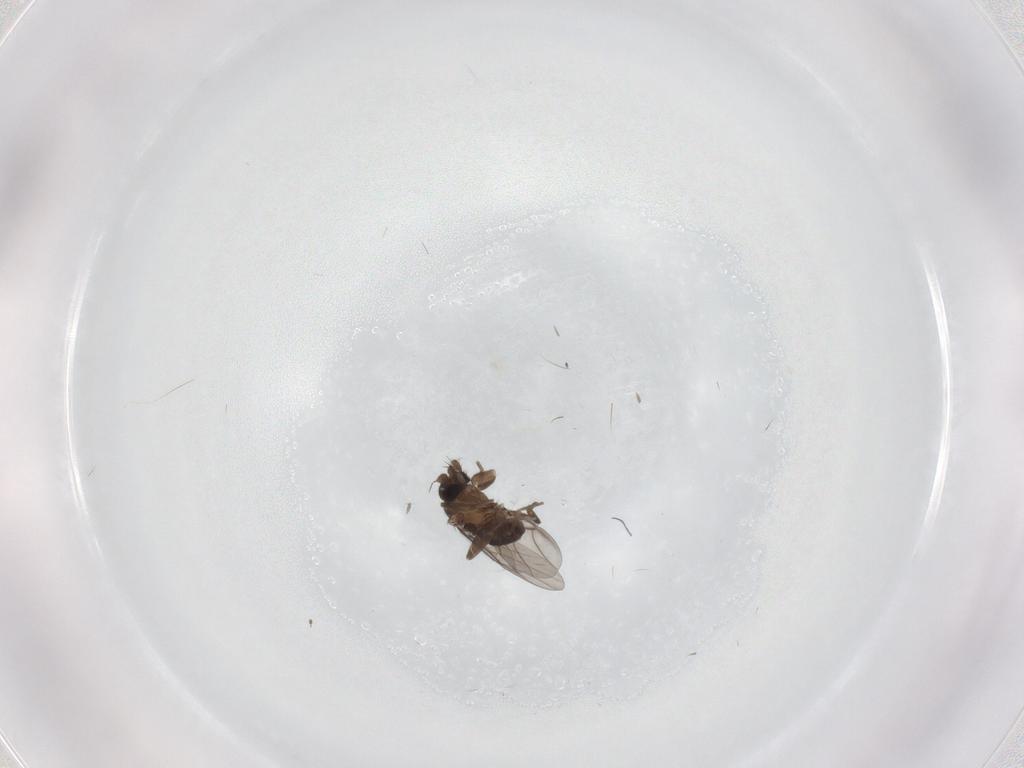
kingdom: Animalia
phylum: Arthropoda
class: Insecta
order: Diptera
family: Phoridae
